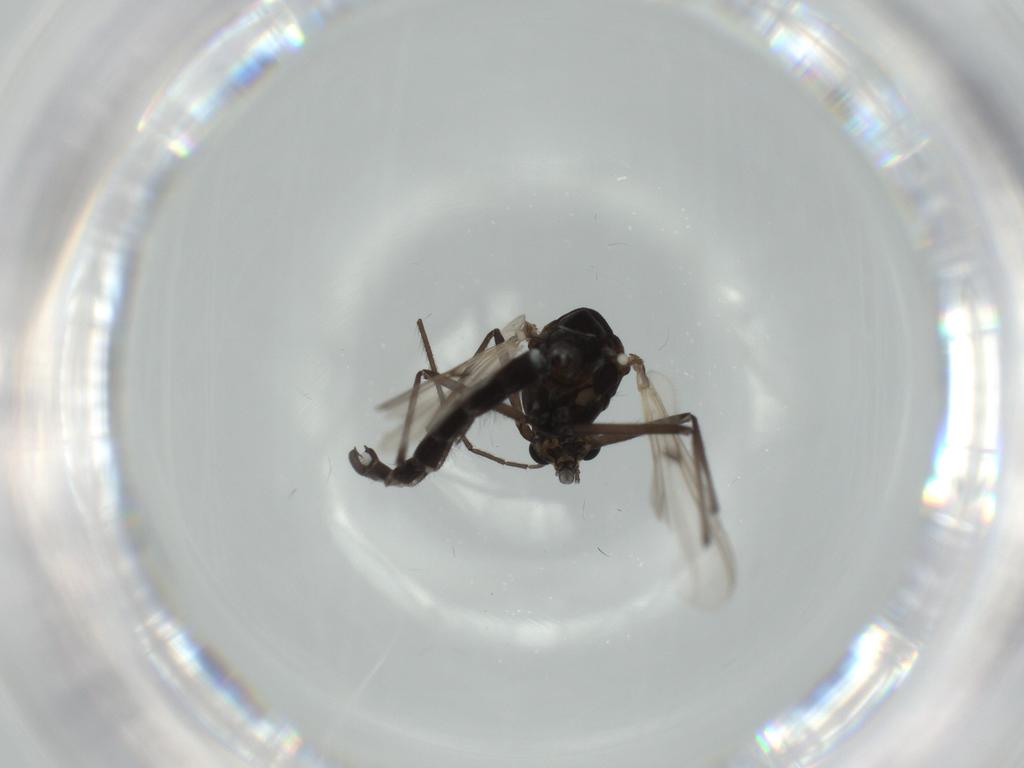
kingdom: Animalia
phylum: Arthropoda
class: Insecta
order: Diptera
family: Chironomidae
